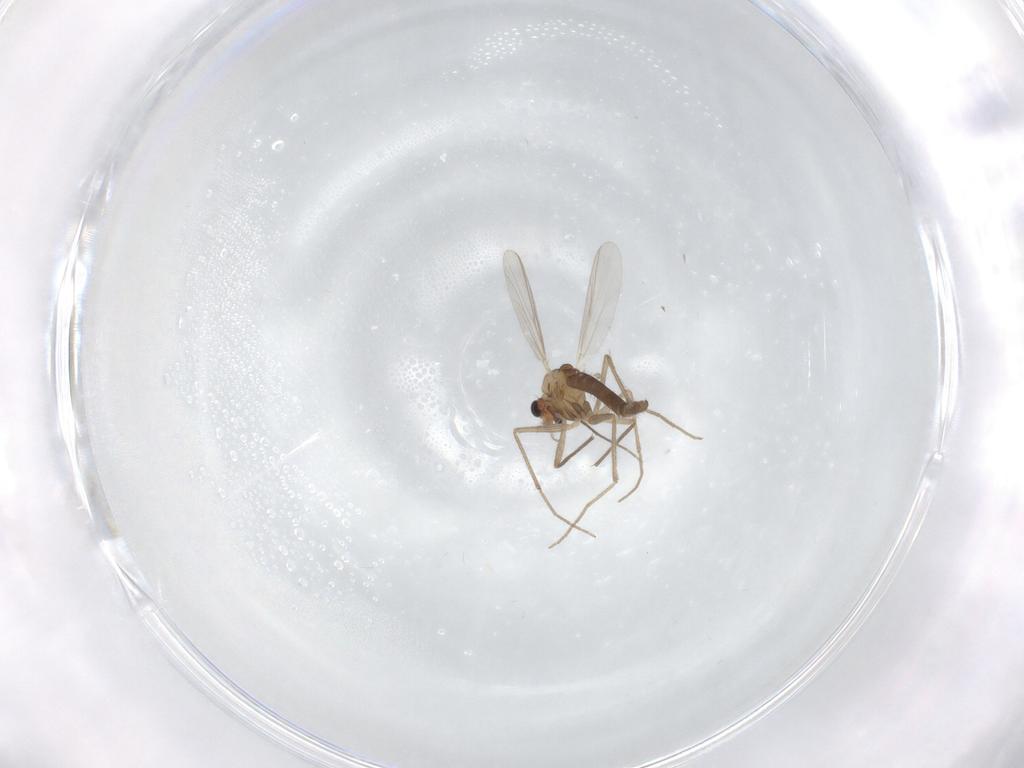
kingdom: Animalia
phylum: Arthropoda
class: Insecta
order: Diptera
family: Chironomidae
